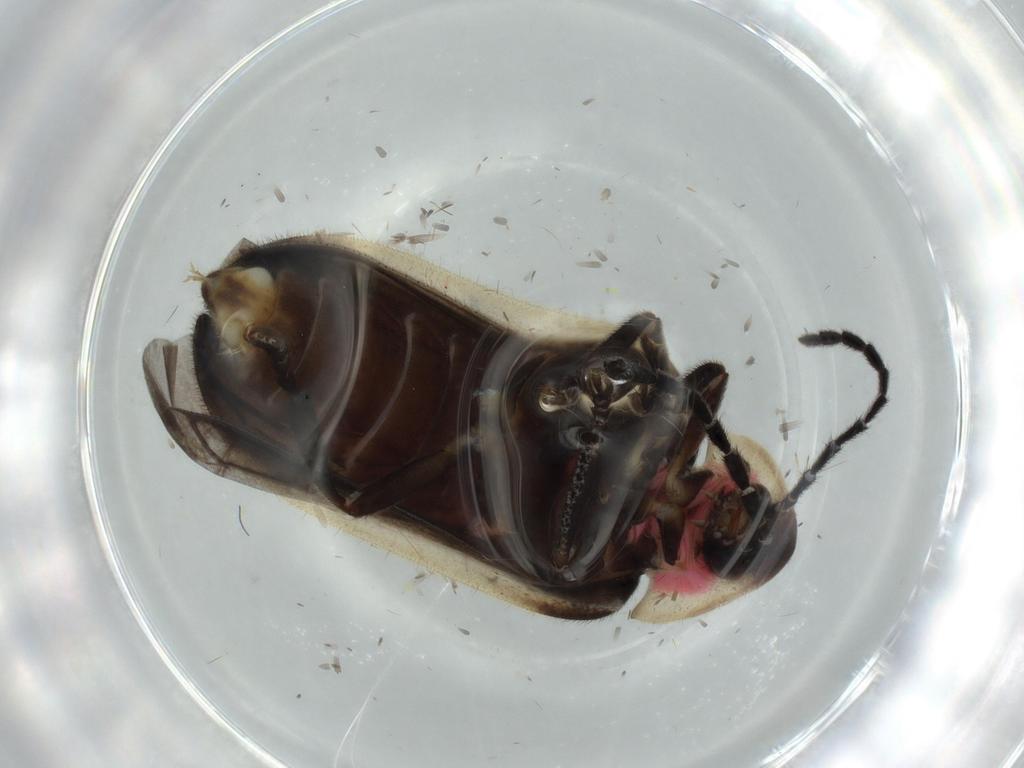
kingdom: Animalia
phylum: Arthropoda
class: Insecta
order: Coleoptera
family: Lampyridae
